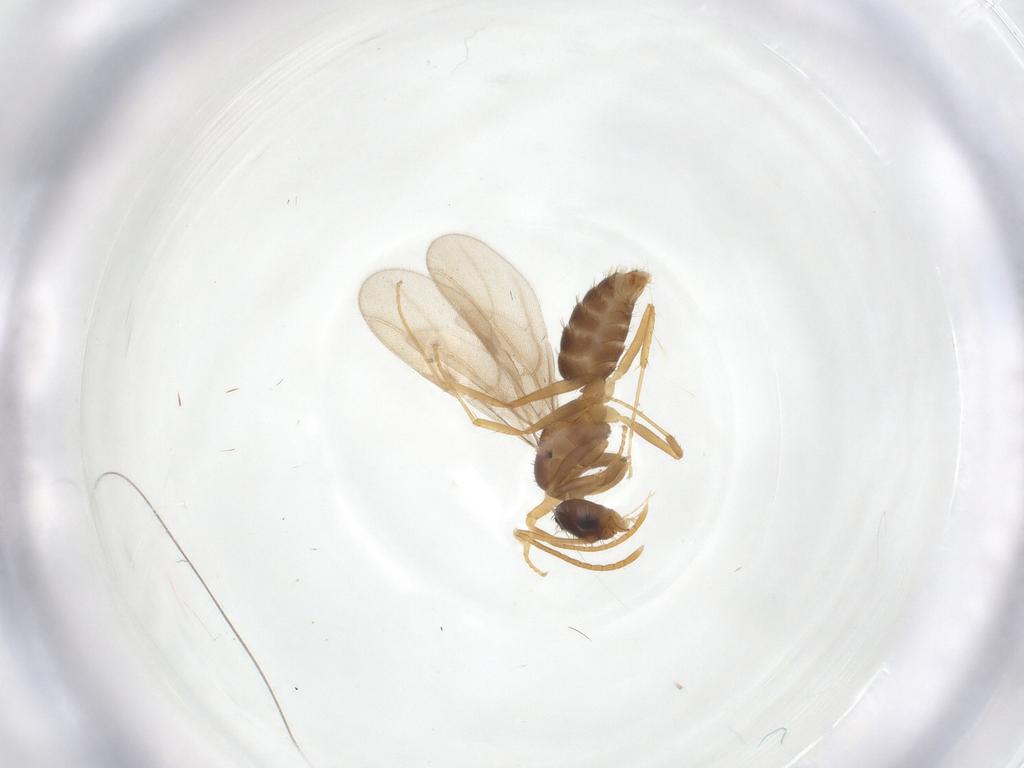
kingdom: Animalia
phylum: Arthropoda
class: Insecta
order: Hymenoptera
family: Formicidae
